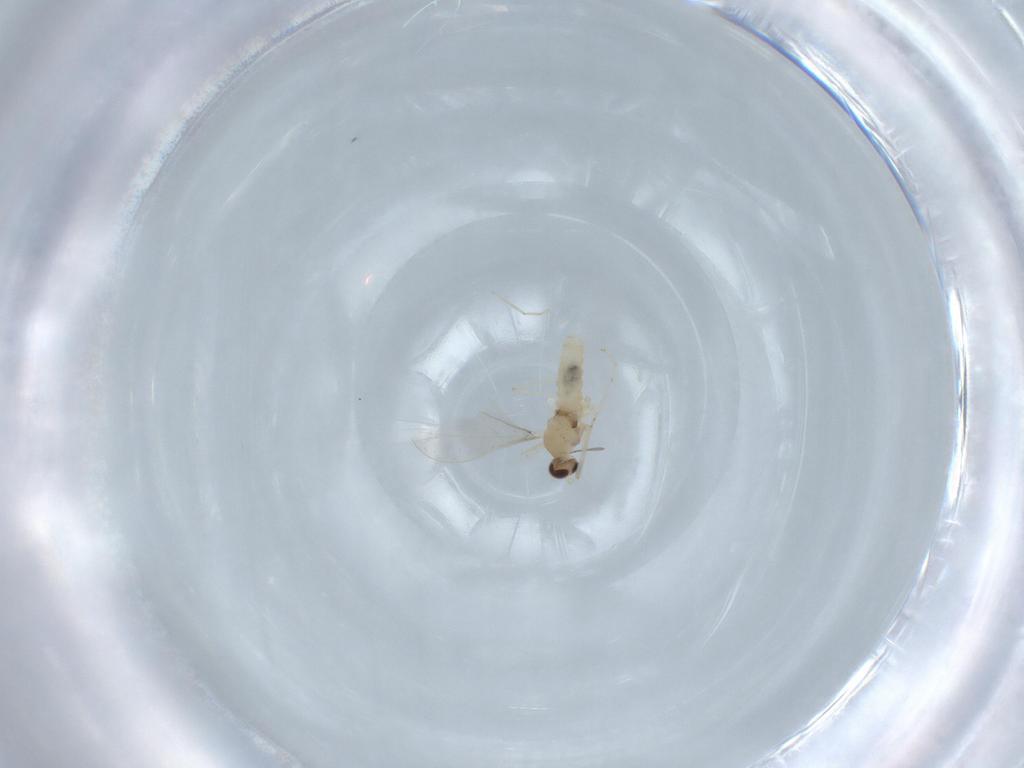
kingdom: Animalia
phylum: Arthropoda
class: Insecta
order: Diptera
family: Cecidomyiidae
